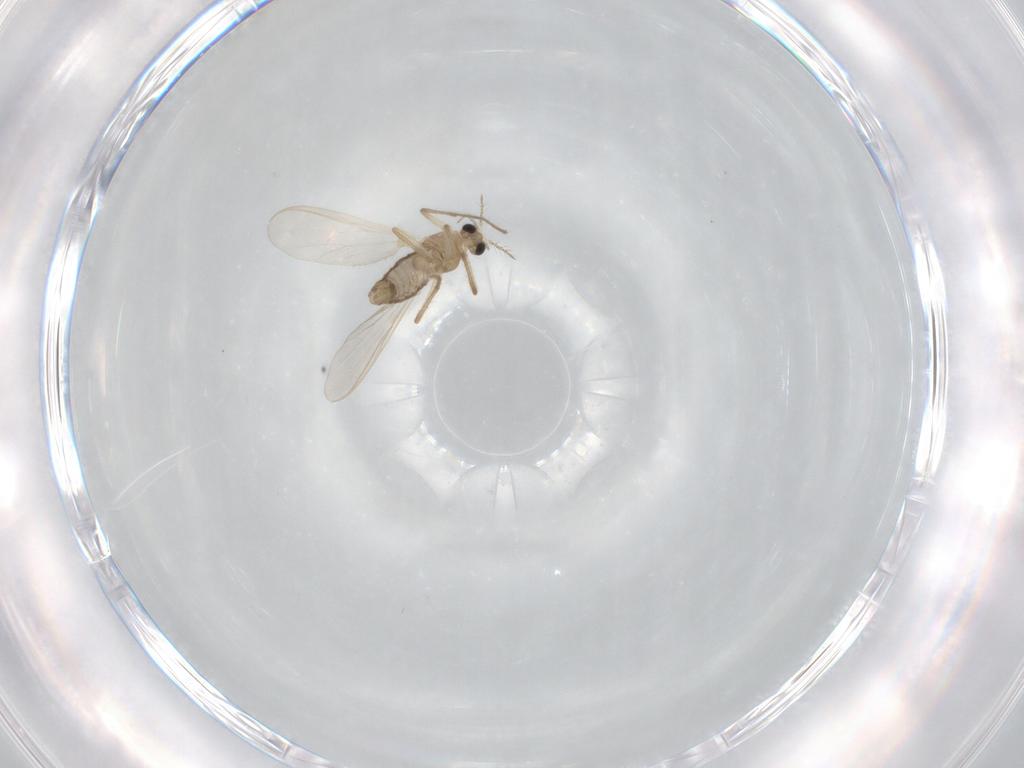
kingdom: Animalia
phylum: Arthropoda
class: Insecta
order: Diptera
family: Chironomidae
